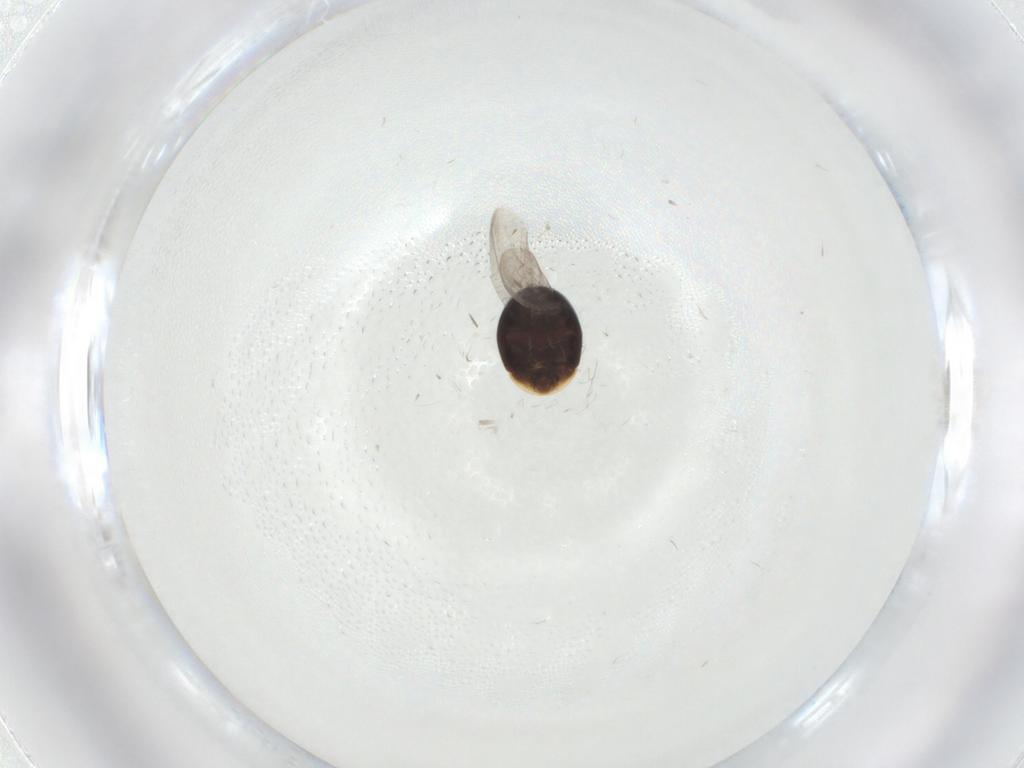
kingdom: Animalia
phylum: Arthropoda
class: Insecta
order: Coleoptera
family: Corylophidae
